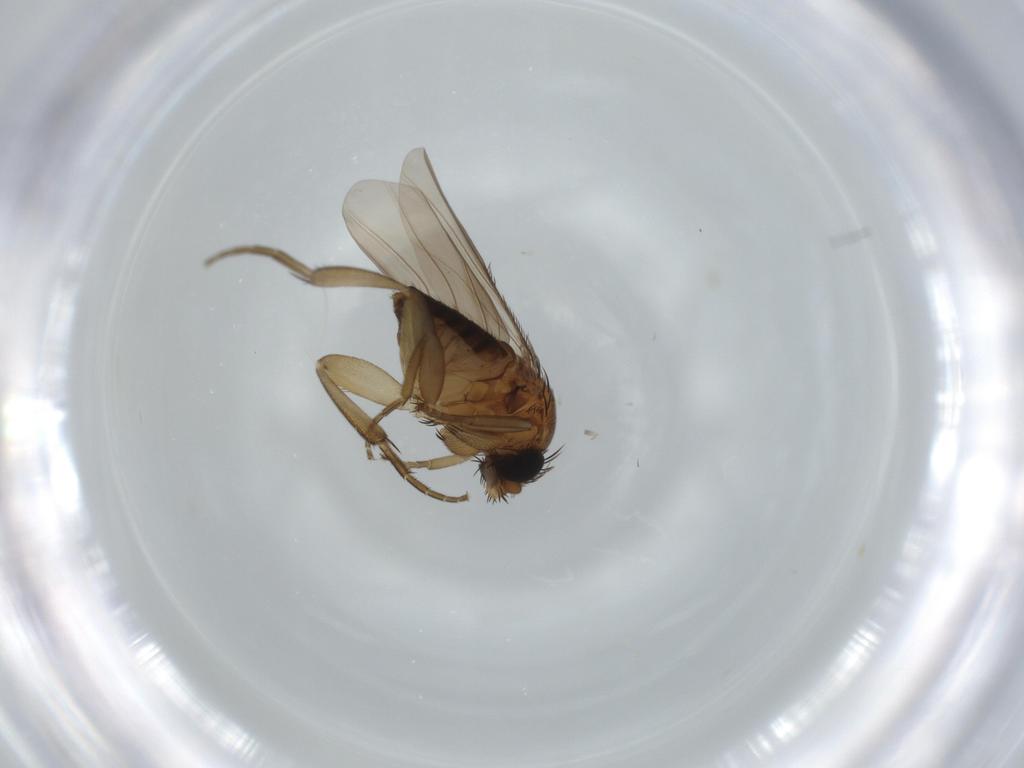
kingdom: Animalia
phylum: Arthropoda
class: Insecta
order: Diptera
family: Phoridae
